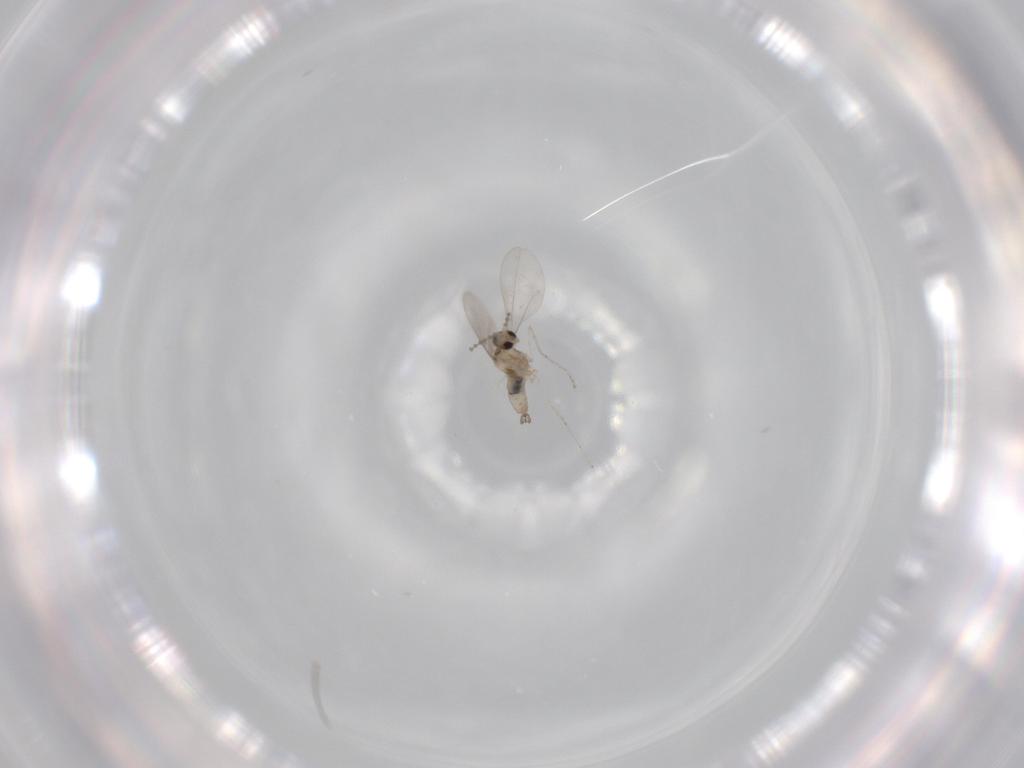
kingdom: Animalia
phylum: Arthropoda
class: Insecta
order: Diptera
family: Cecidomyiidae
